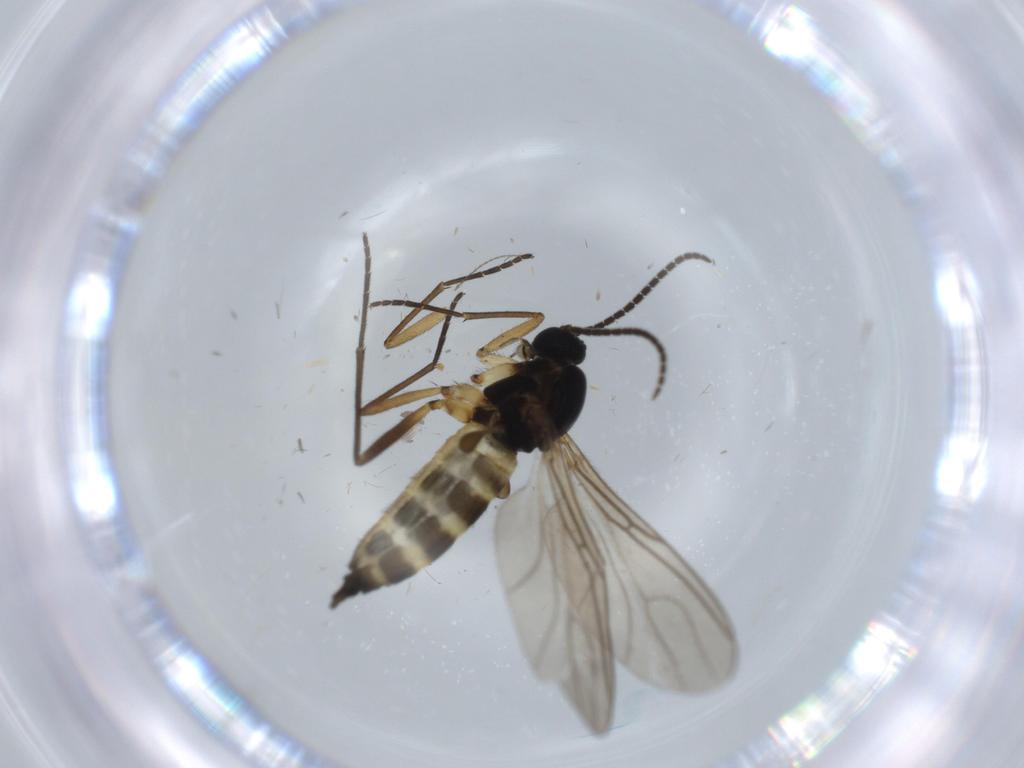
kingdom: Animalia
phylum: Arthropoda
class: Insecta
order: Diptera
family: Sciaridae
